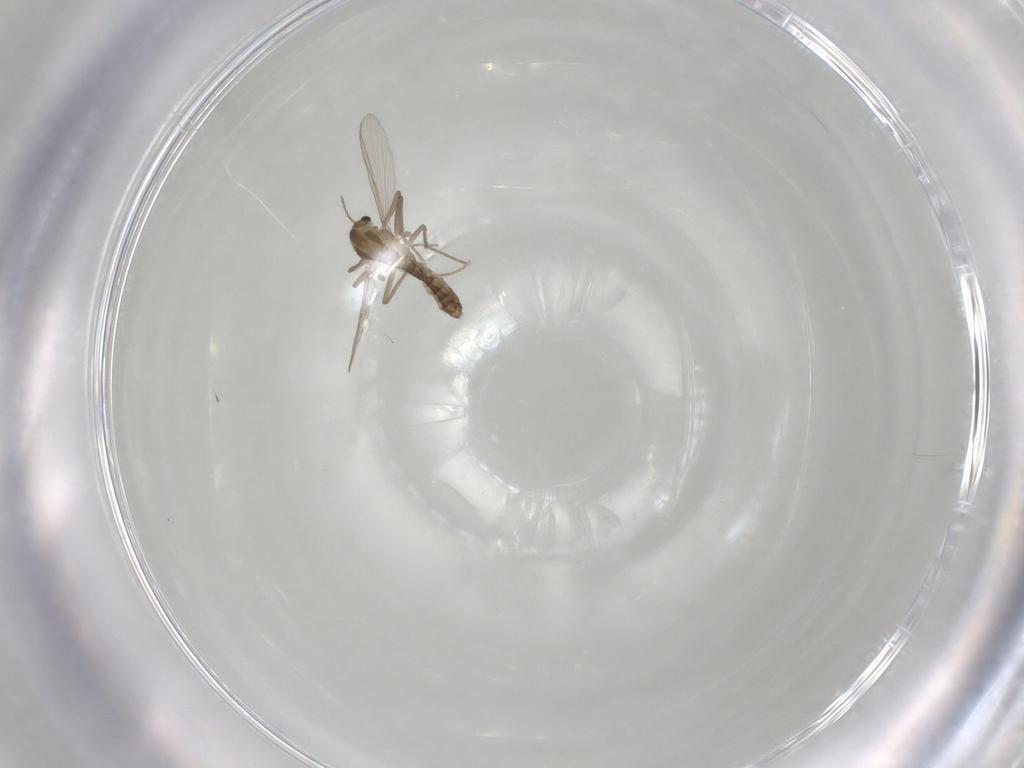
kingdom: Animalia
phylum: Arthropoda
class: Insecta
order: Diptera
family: Chironomidae
